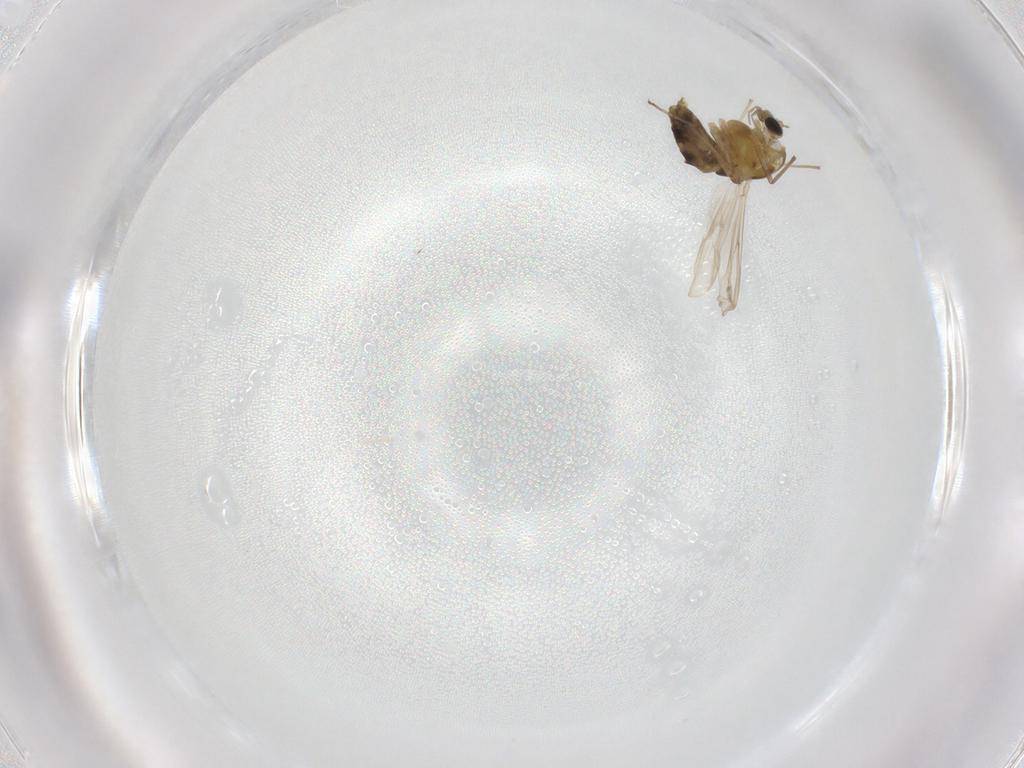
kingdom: Animalia
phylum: Arthropoda
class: Insecta
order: Diptera
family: Chironomidae
